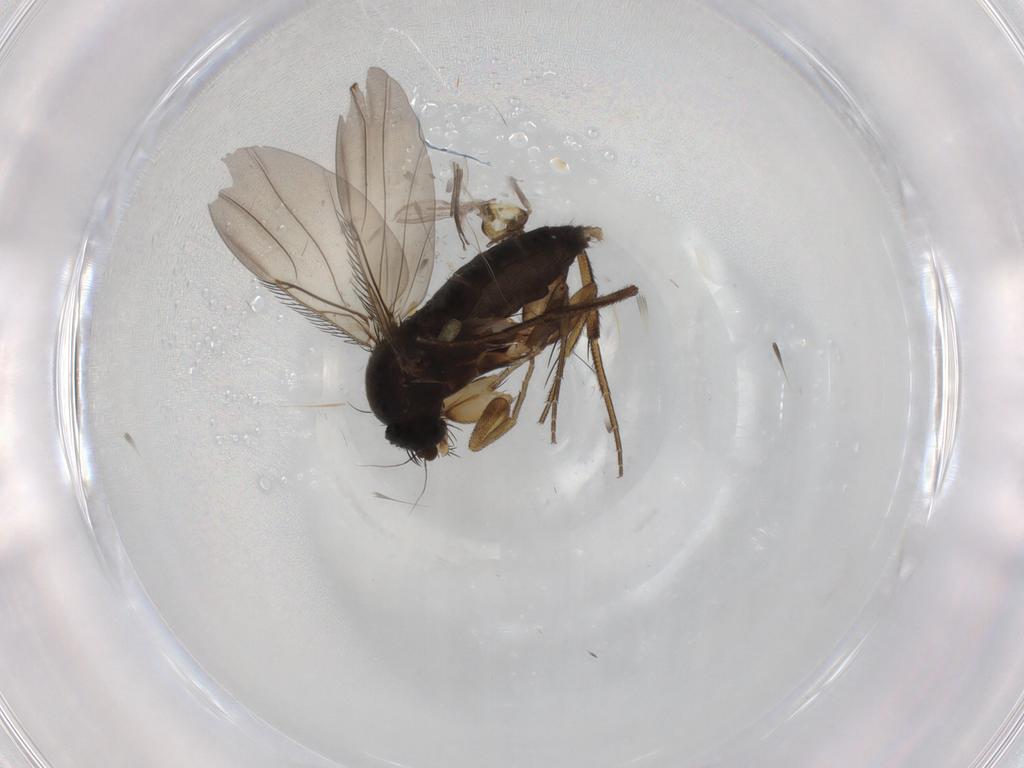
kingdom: Animalia
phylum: Arthropoda
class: Insecta
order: Diptera
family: Phoridae
